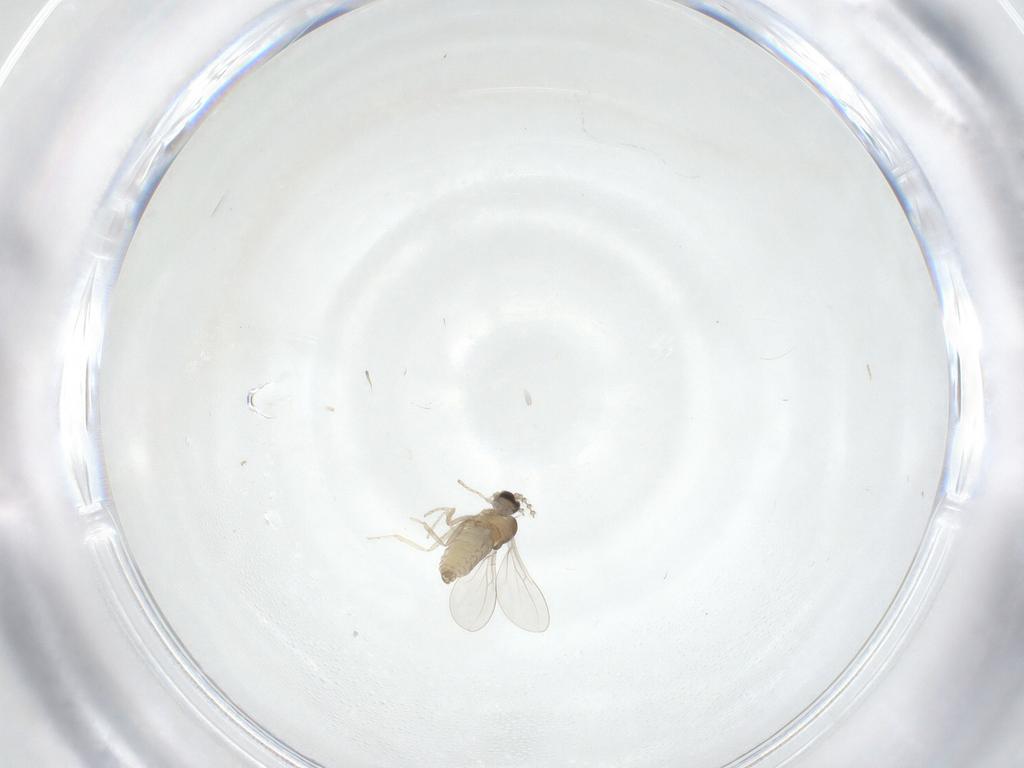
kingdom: Animalia
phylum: Arthropoda
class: Insecta
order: Diptera
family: Cecidomyiidae
